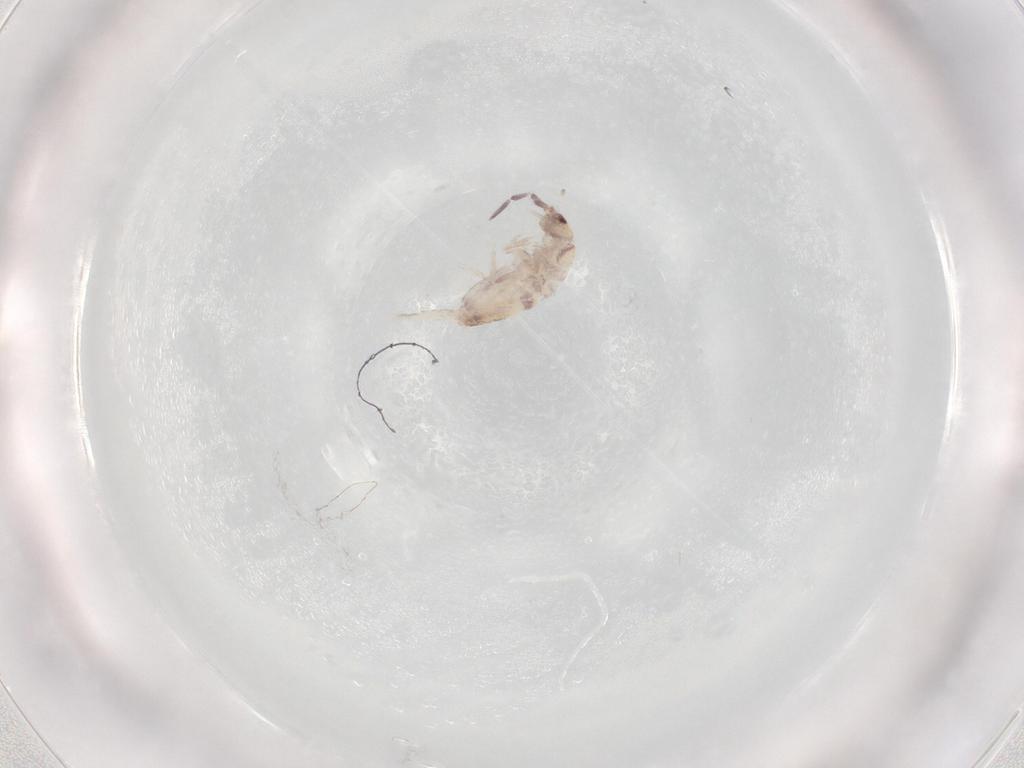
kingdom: Animalia
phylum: Arthropoda
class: Collembola
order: Poduromorpha
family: Hypogastruridae
